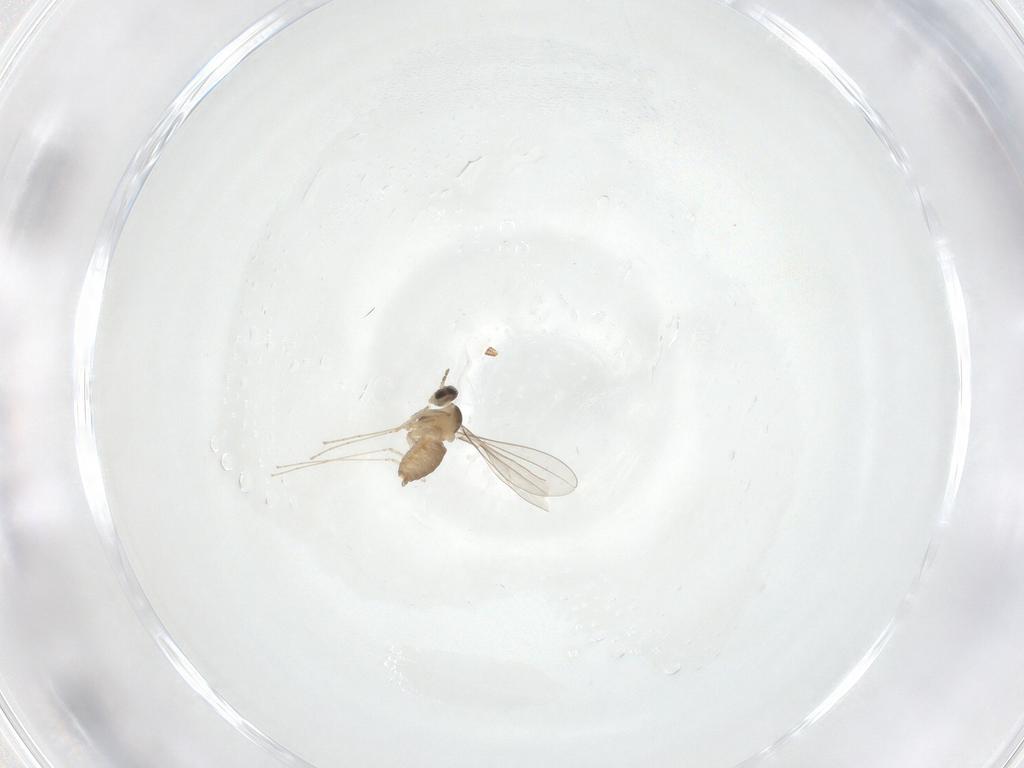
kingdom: Animalia
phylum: Arthropoda
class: Insecta
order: Diptera
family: Cecidomyiidae
